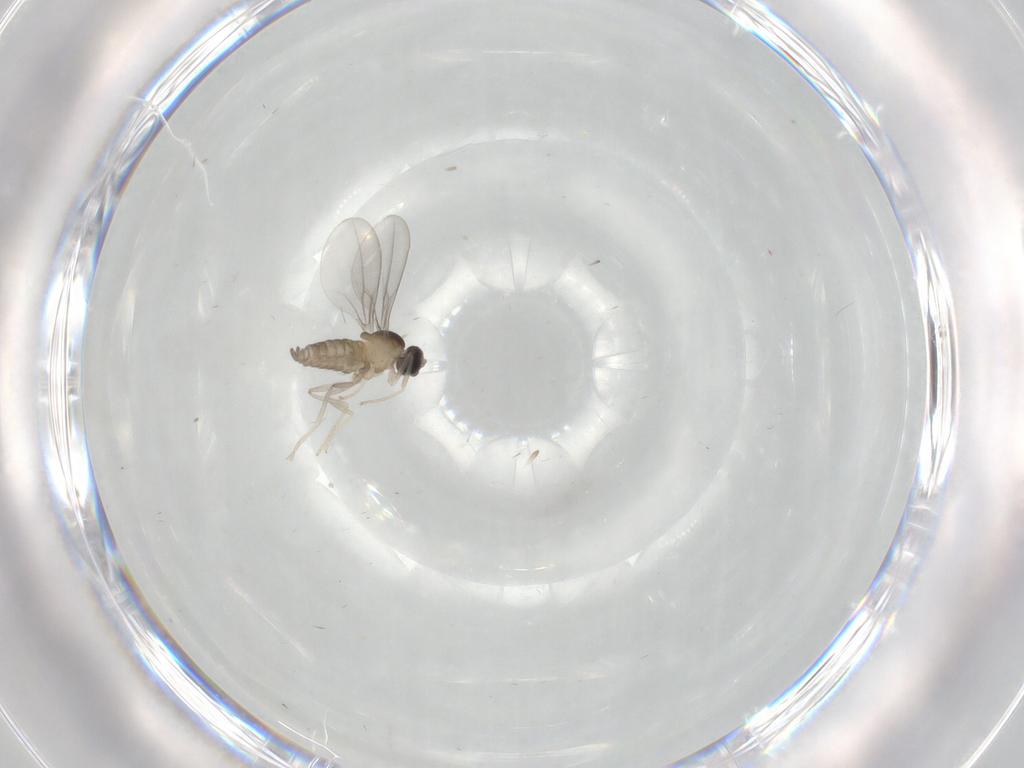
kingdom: Animalia
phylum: Arthropoda
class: Insecta
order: Diptera
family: Cecidomyiidae
